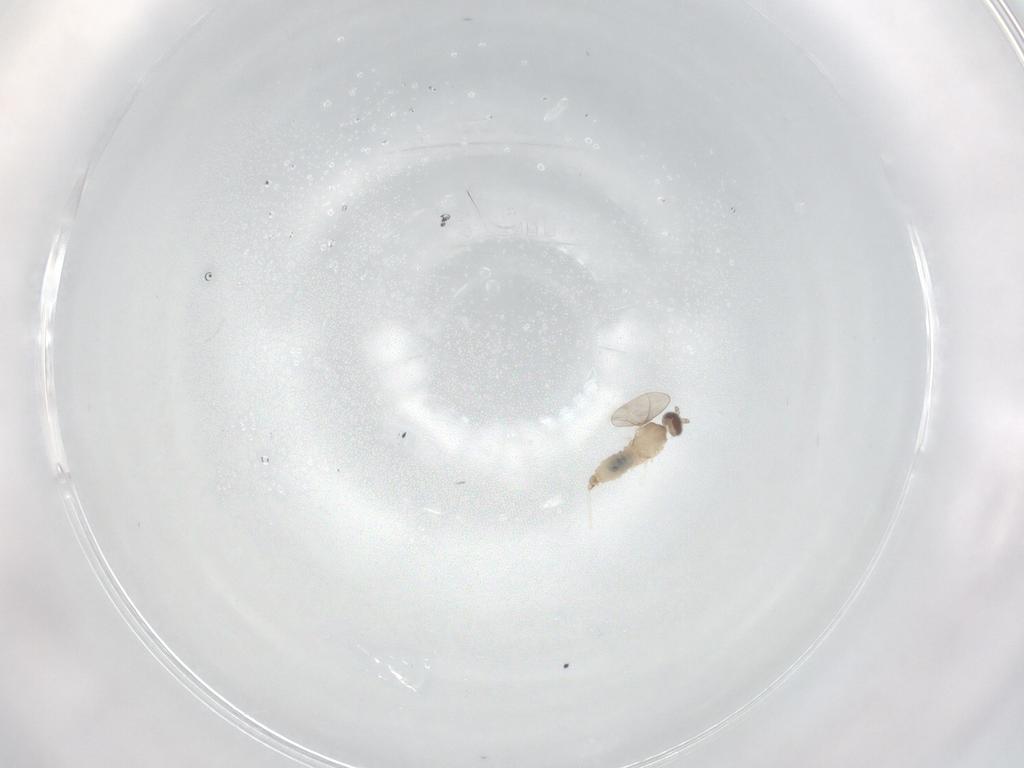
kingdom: Animalia
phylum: Arthropoda
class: Insecta
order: Diptera
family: Cecidomyiidae
